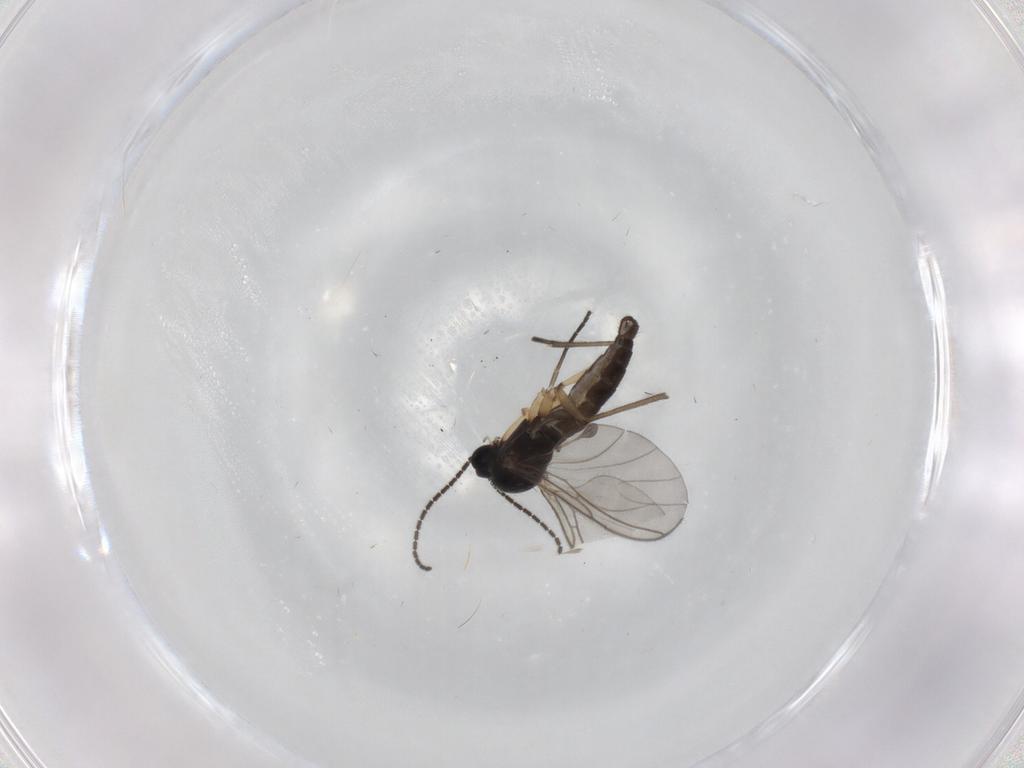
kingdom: Animalia
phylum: Arthropoda
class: Insecta
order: Diptera
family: Sciaridae
